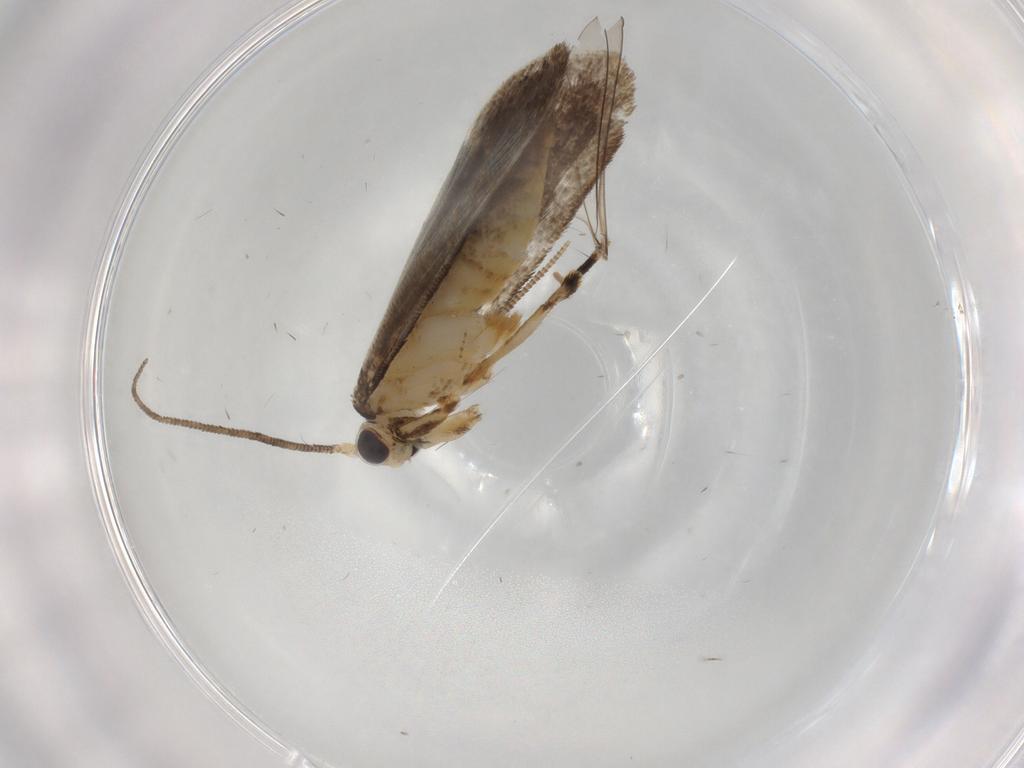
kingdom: Animalia
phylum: Arthropoda
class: Insecta
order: Lepidoptera
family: Tineidae
